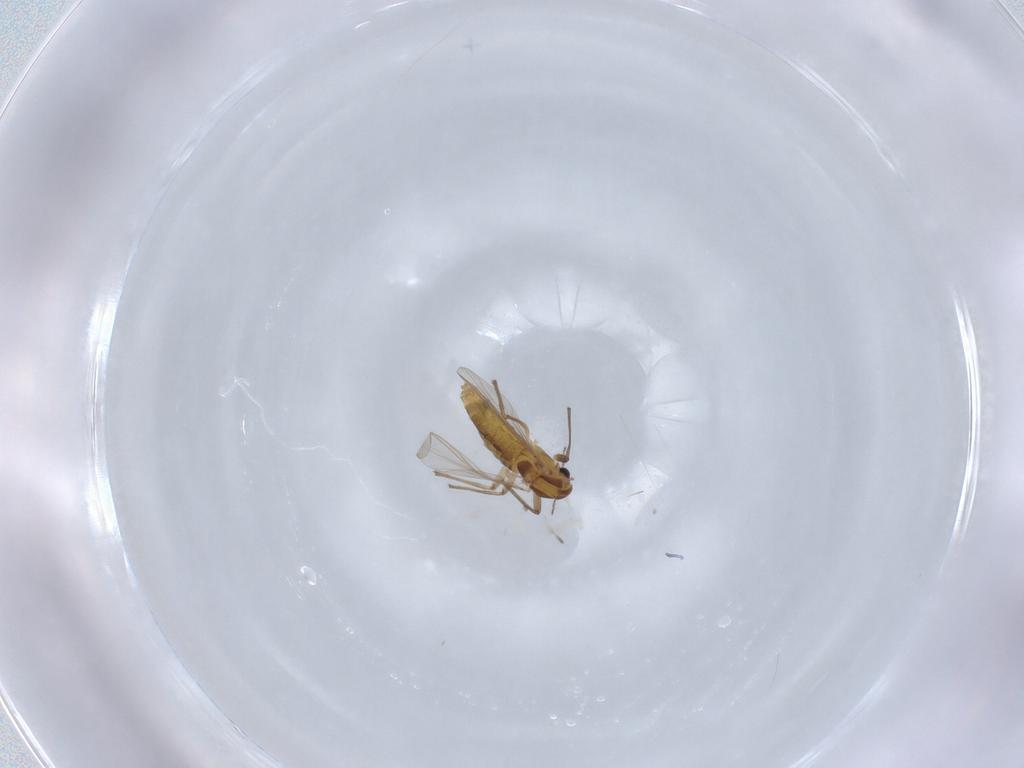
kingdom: Animalia
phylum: Arthropoda
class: Insecta
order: Diptera
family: Chironomidae
